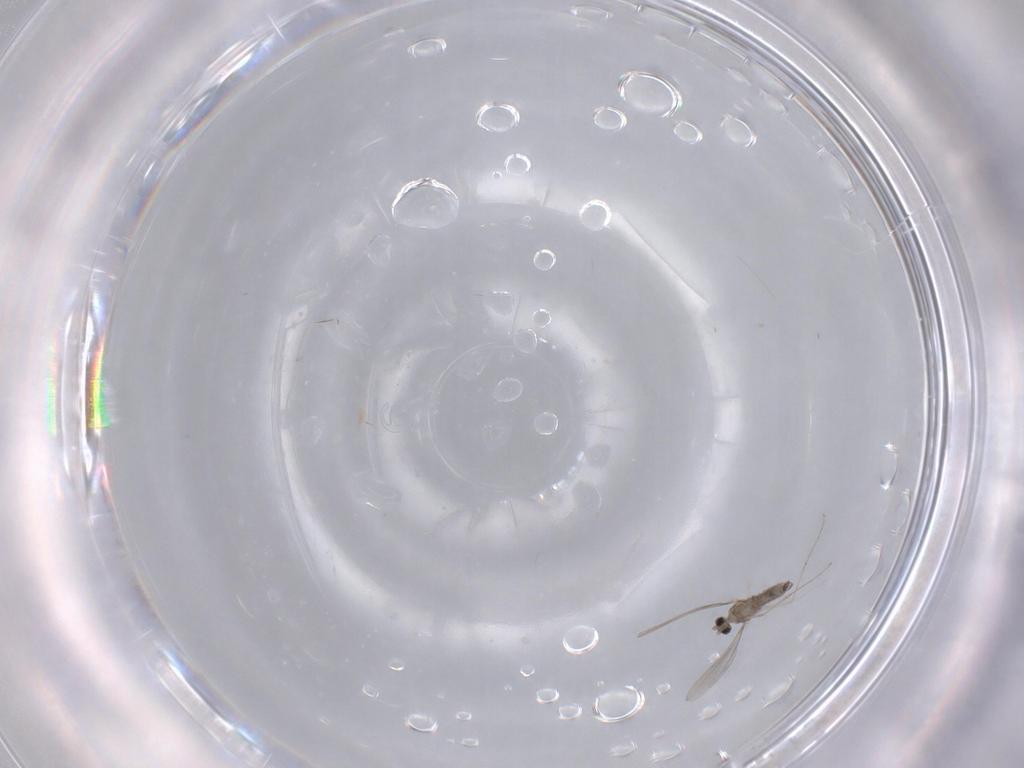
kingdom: Animalia
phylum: Arthropoda
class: Insecta
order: Diptera
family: Cecidomyiidae
